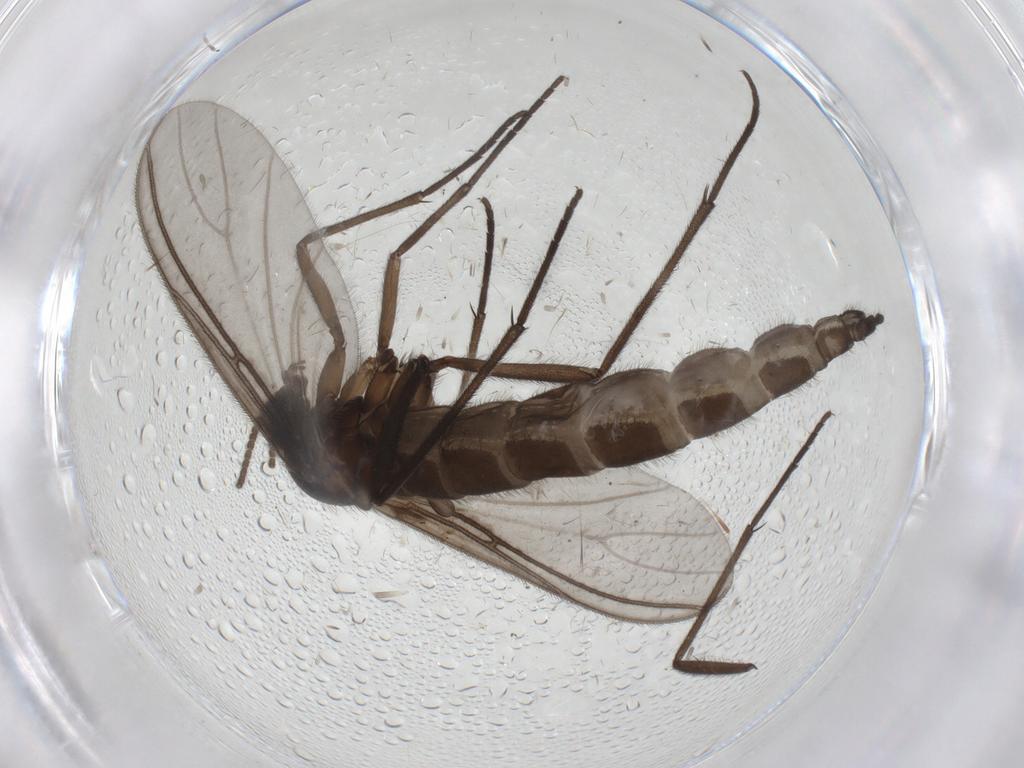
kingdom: Animalia
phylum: Arthropoda
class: Insecta
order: Diptera
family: Sciaridae
